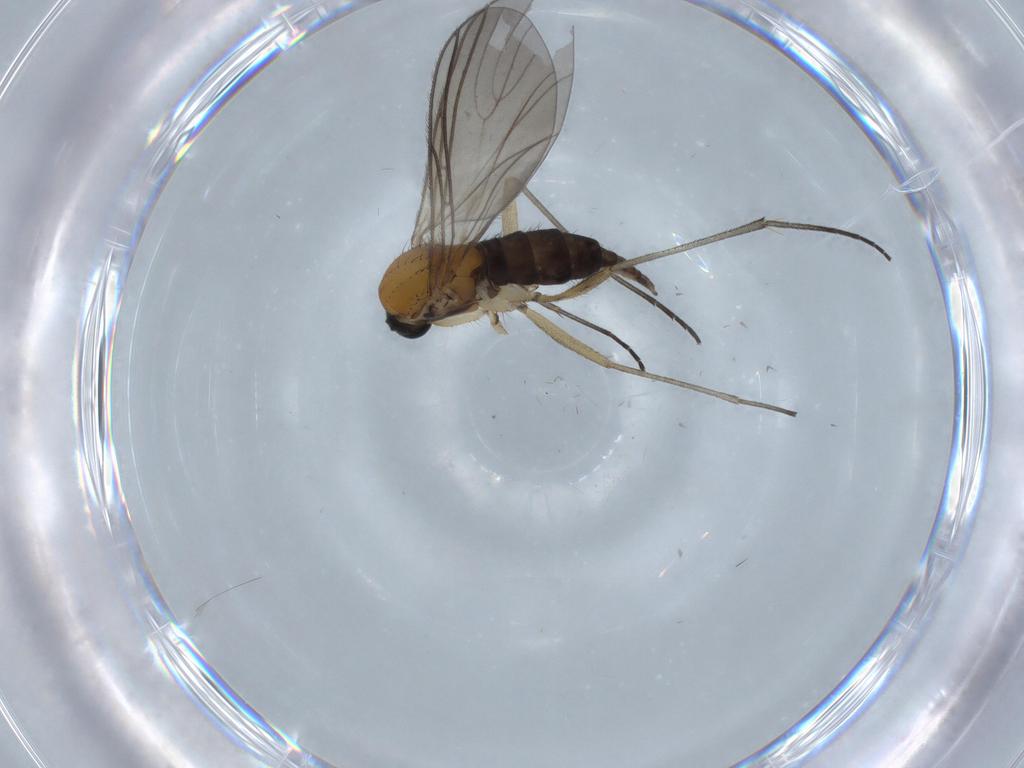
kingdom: Animalia
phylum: Arthropoda
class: Insecta
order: Diptera
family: Sciaridae
